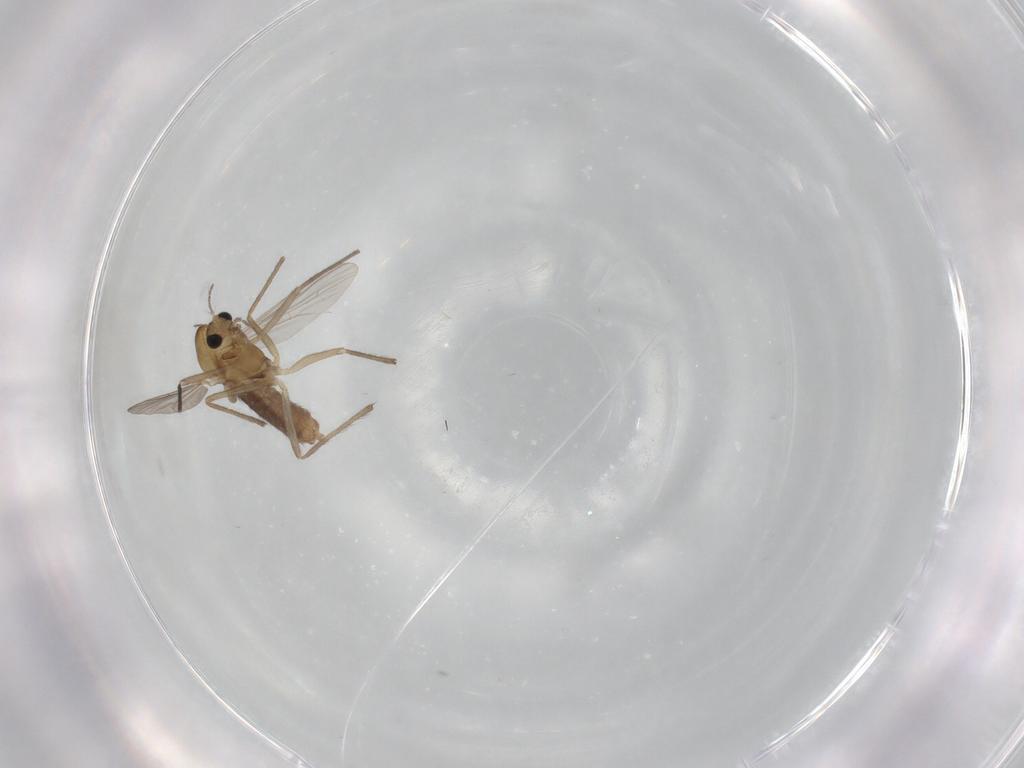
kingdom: Animalia
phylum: Arthropoda
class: Insecta
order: Diptera
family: Chironomidae
